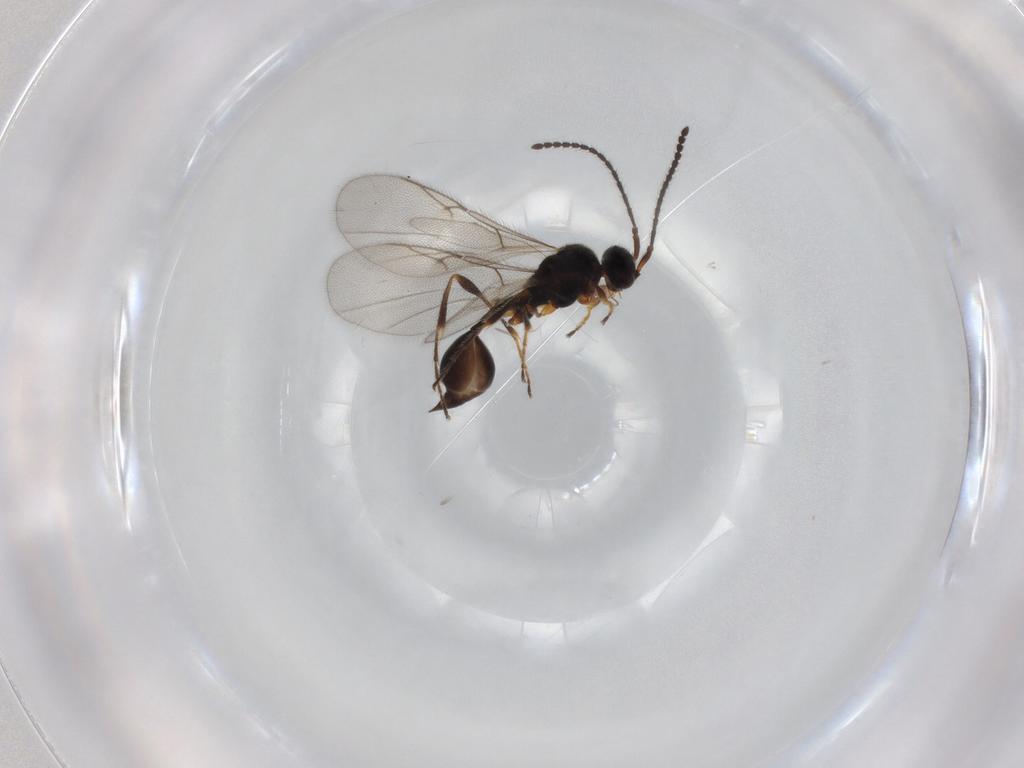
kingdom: Animalia
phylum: Arthropoda
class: Insecta
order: Hymenoptera
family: Diapriidae
